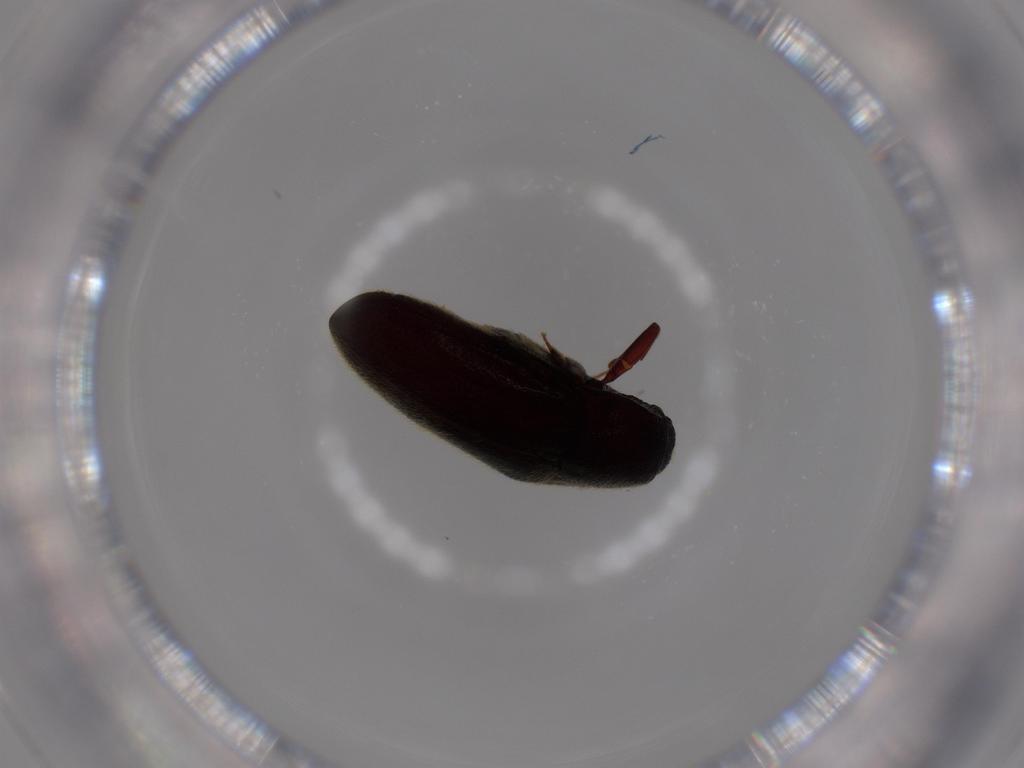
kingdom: Animalia
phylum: Arthropoda
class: Insecta
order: Coleoptera
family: Throscidae
